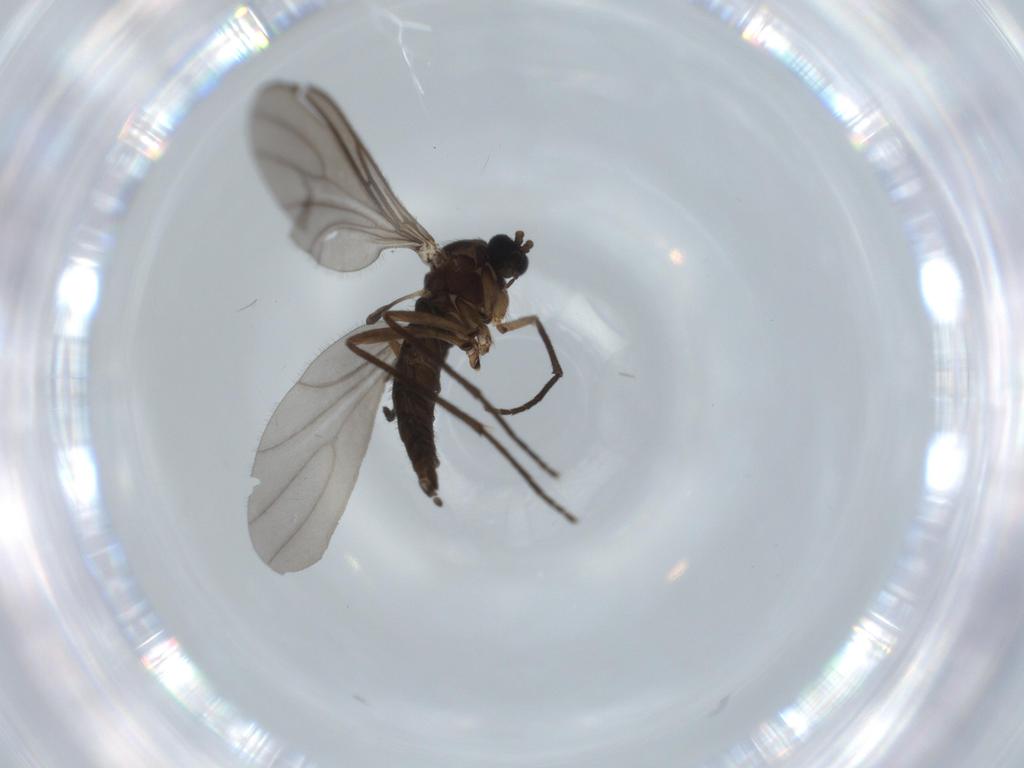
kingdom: Animalia
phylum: Arthropoda
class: Insecta
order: Diptera
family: Sciaridae
